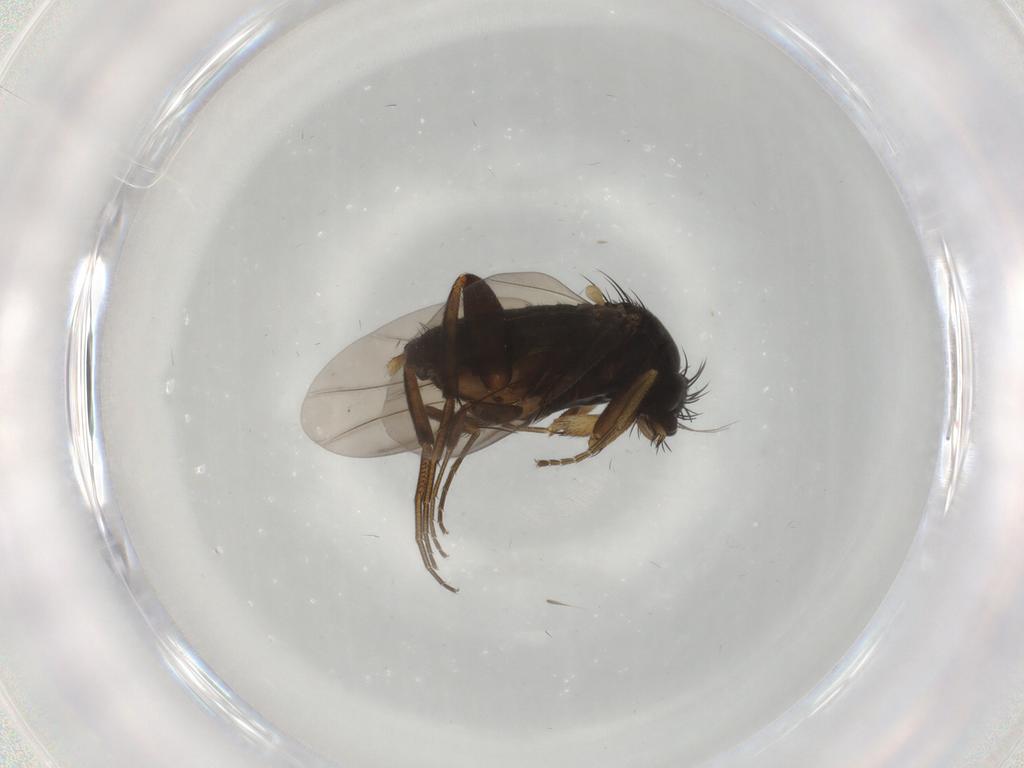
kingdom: Animalia
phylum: Arthropoda
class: Insecta
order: Diptera
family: Phoridae
